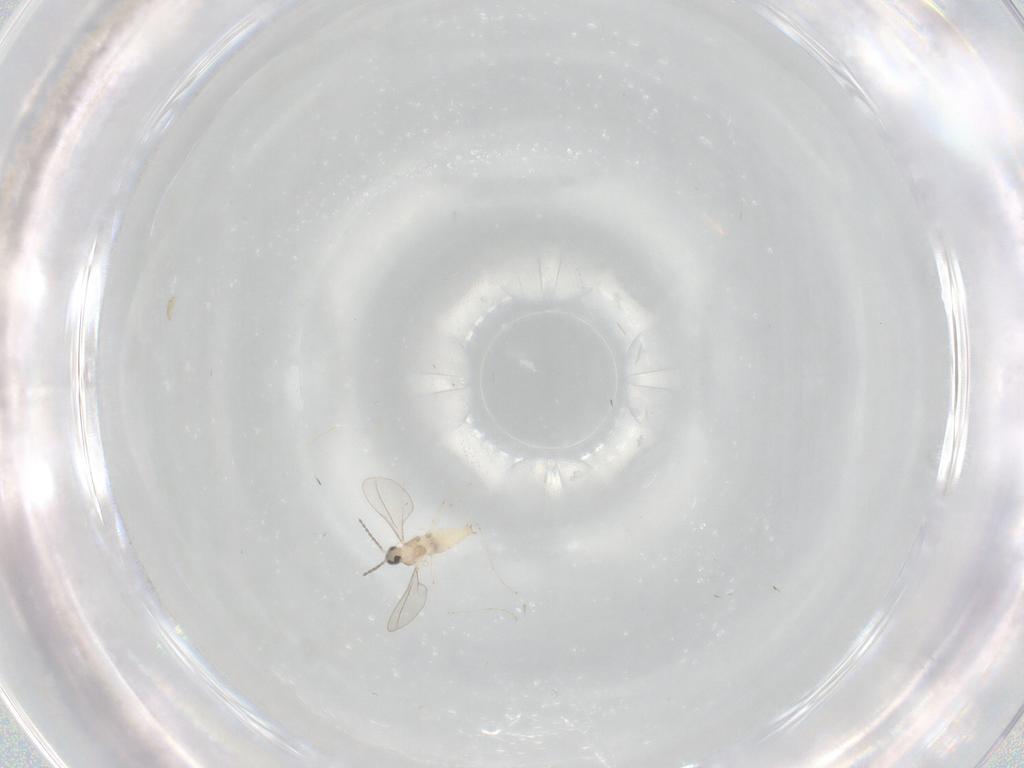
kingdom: Animalia
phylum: Arthropoda
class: Insecta
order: Diptera
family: Cecidomyiidae
